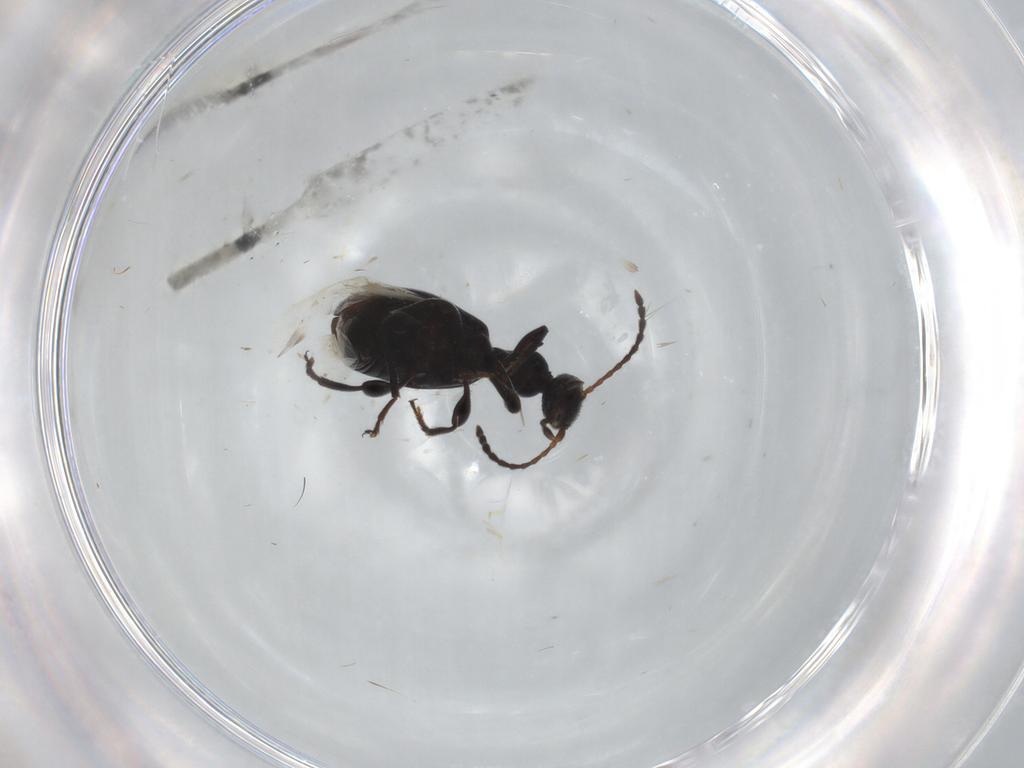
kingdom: Animalia
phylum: Arthropoda
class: Insecta
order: Coleoptera
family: Anthicidae
